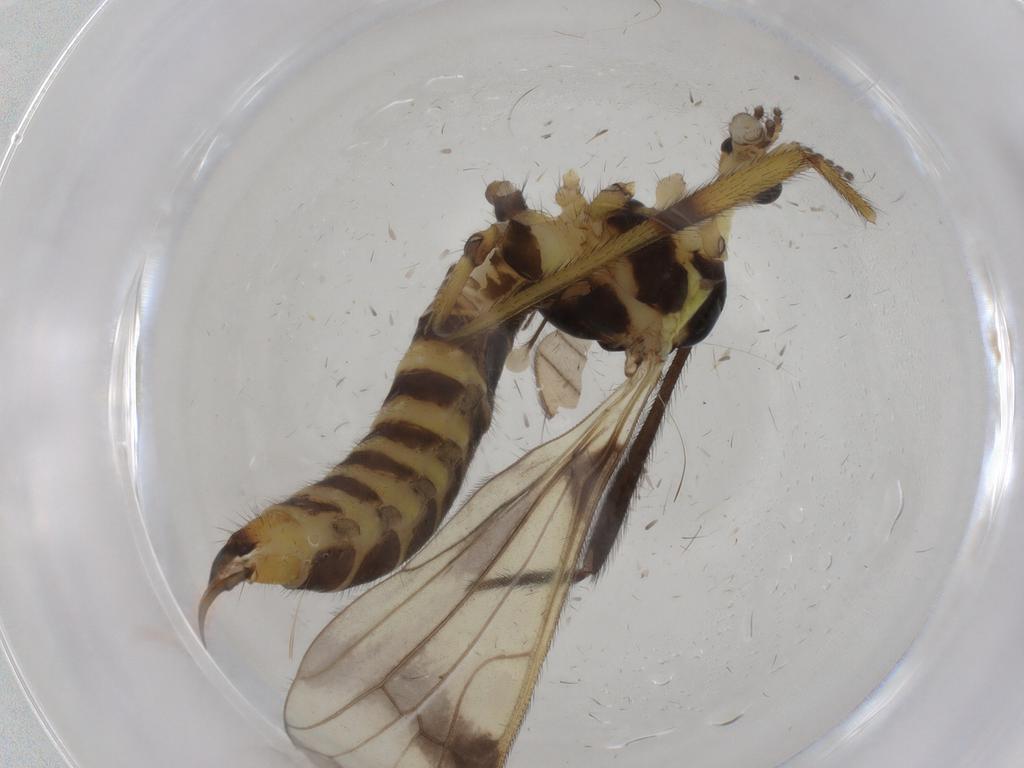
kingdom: Animalia
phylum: Arthropoda
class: Insecta
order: Diptera
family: Limoniidae
